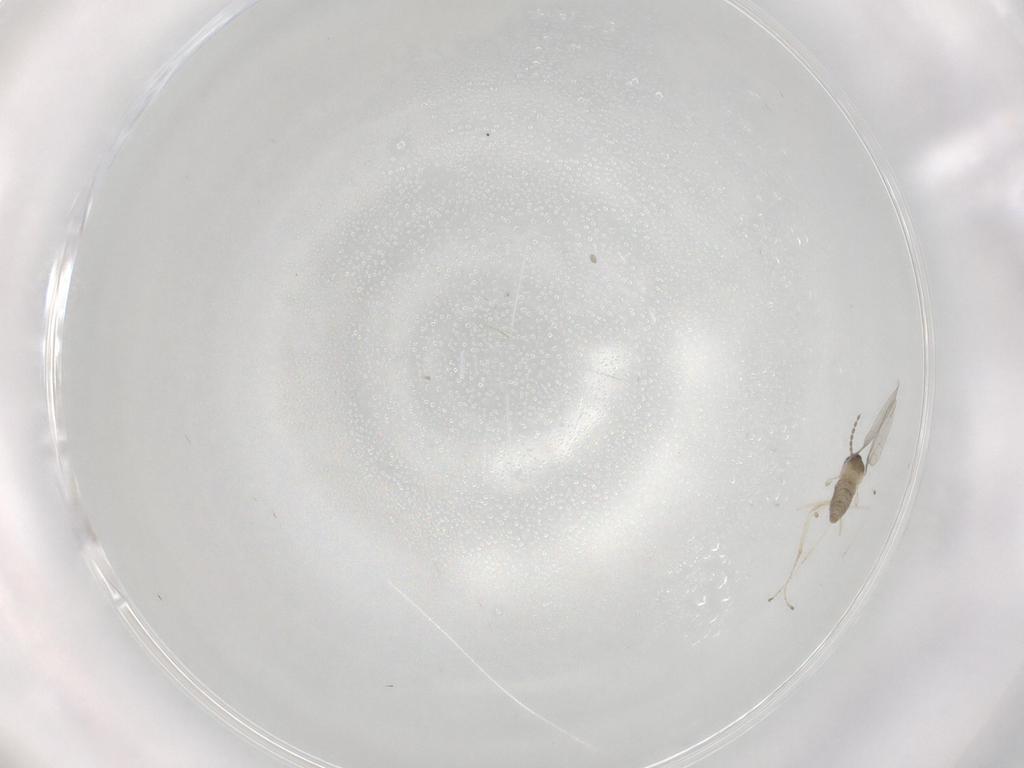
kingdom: Animalia
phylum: Arthropoda
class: Insecta
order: Diptera
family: Cecidomyiidae
